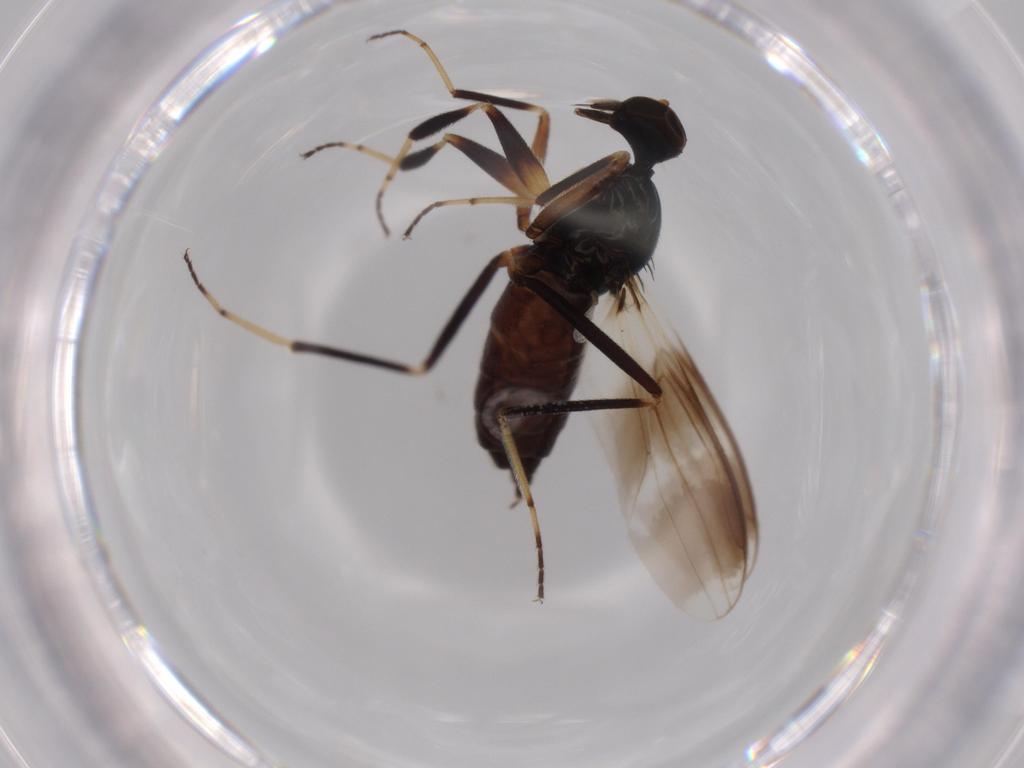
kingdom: Animalia
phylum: Arthropoda
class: Insecta
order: Diptera
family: Hybotidae
